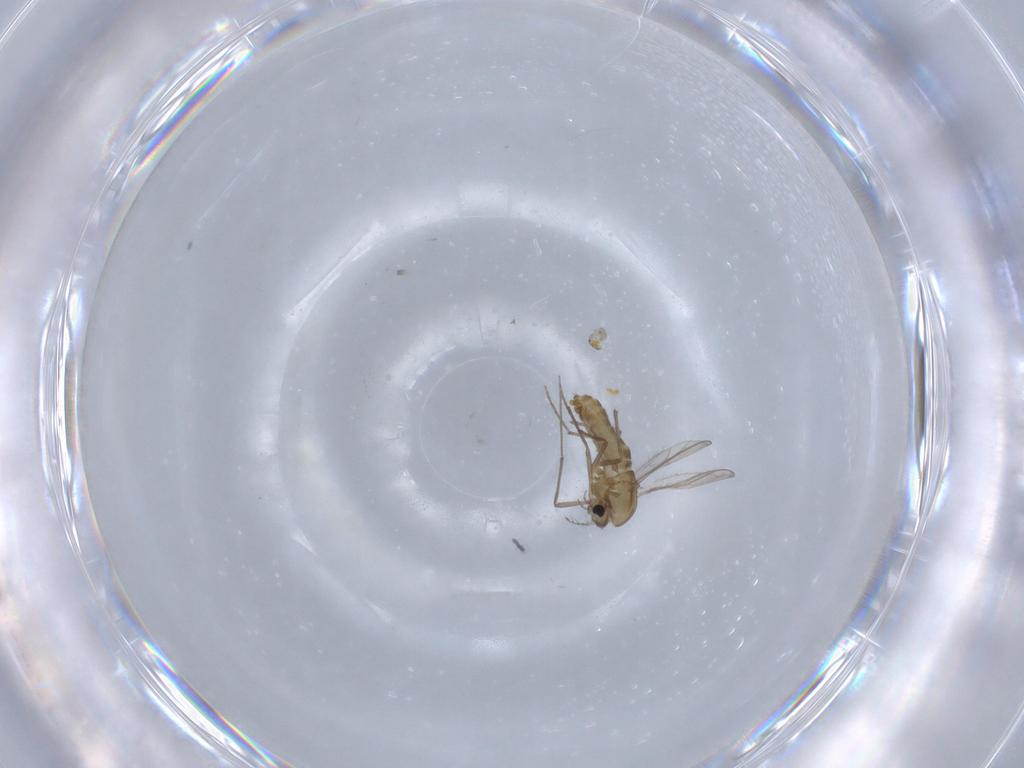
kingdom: Animalia
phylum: Arthropoda
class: Insecta
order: Diptera
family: Chironomidae
